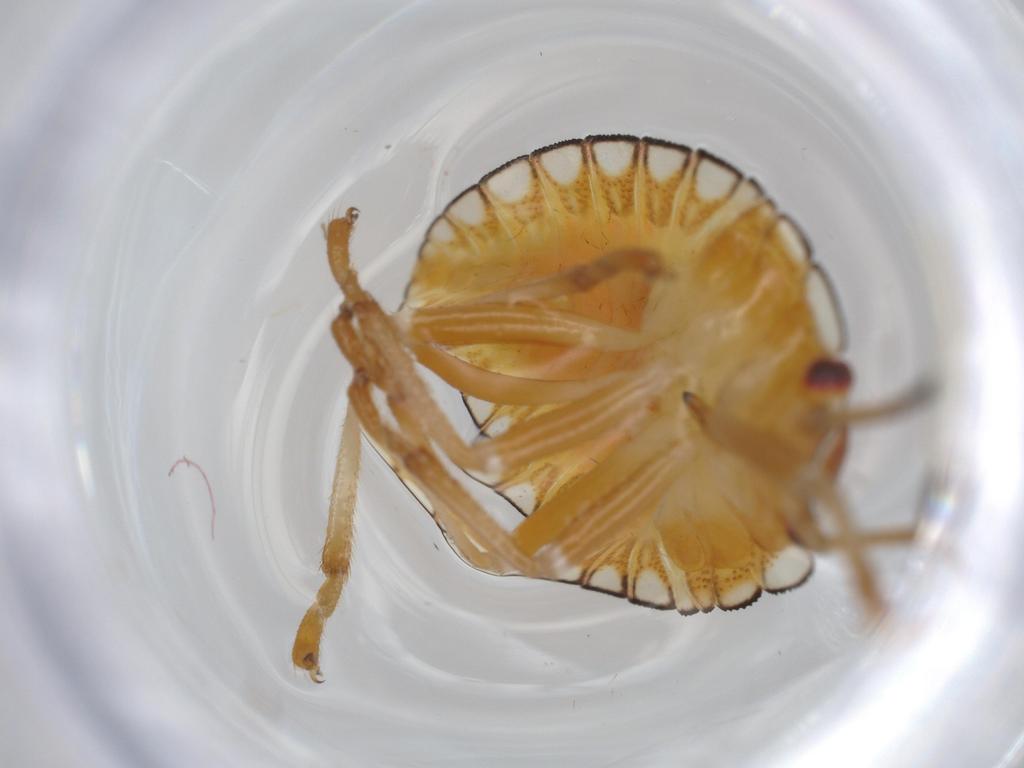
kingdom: Animalia
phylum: Arthropoda
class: Insecta
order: Hemiptera
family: Pentatomidae
